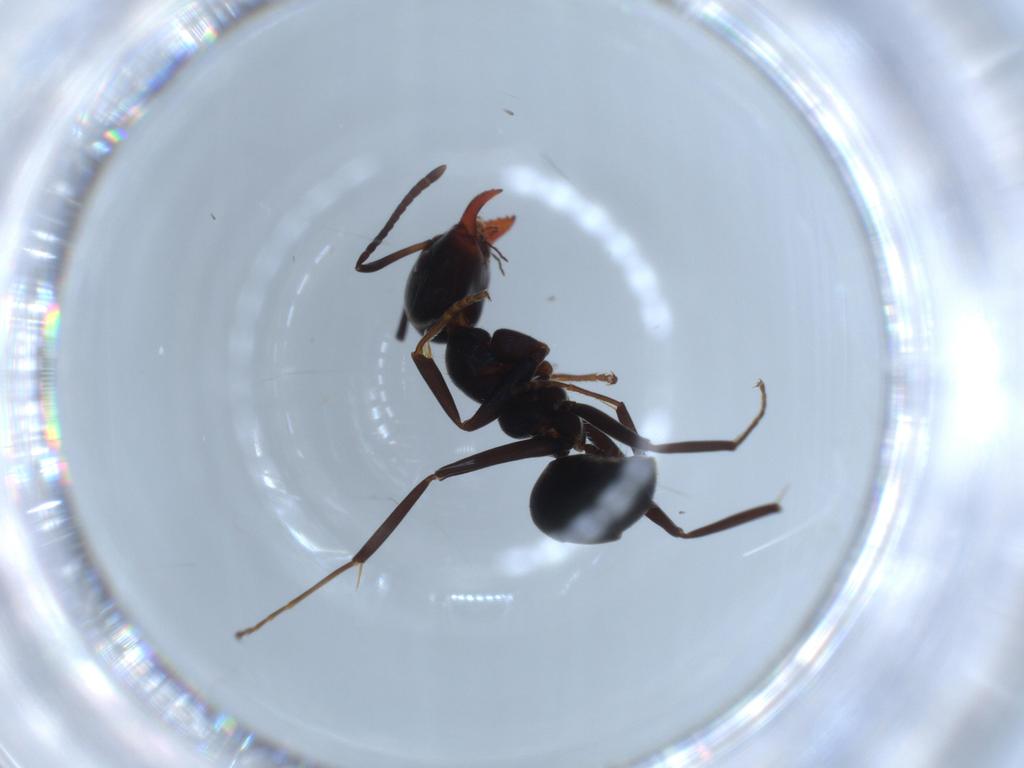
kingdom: Animalia
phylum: Arthropoda
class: Insecta
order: Hymenoptera
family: Formicidae
